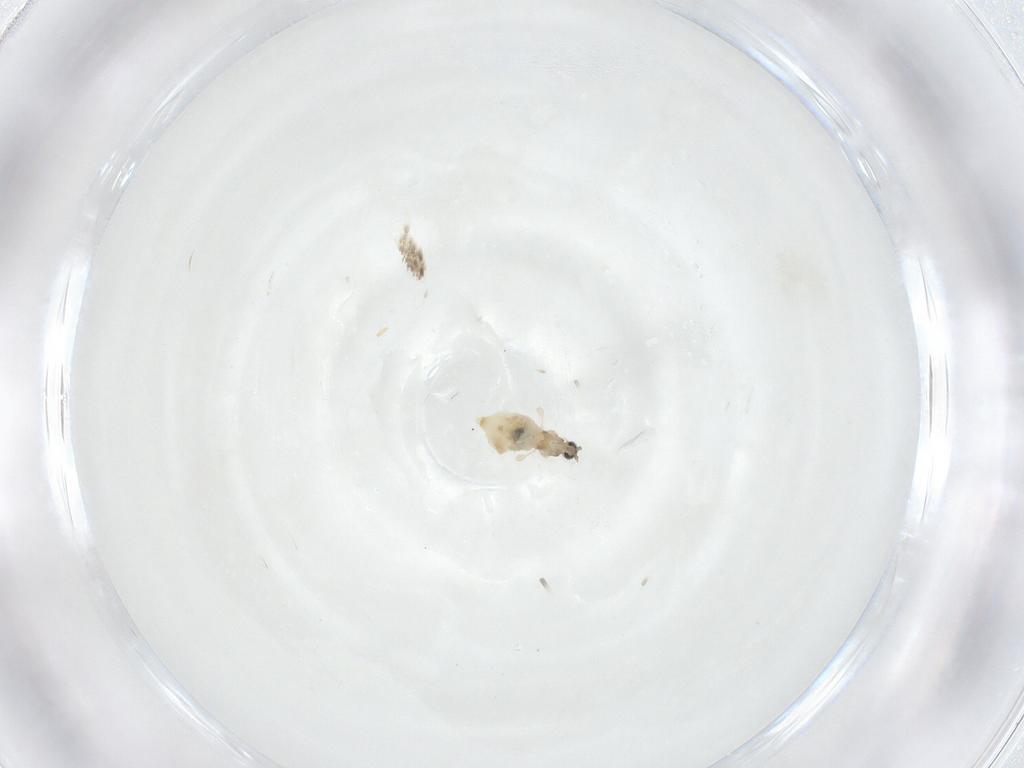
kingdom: Animalia
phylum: Arthropoda
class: Insecta
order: Diptera
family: Cecidomyiidae
